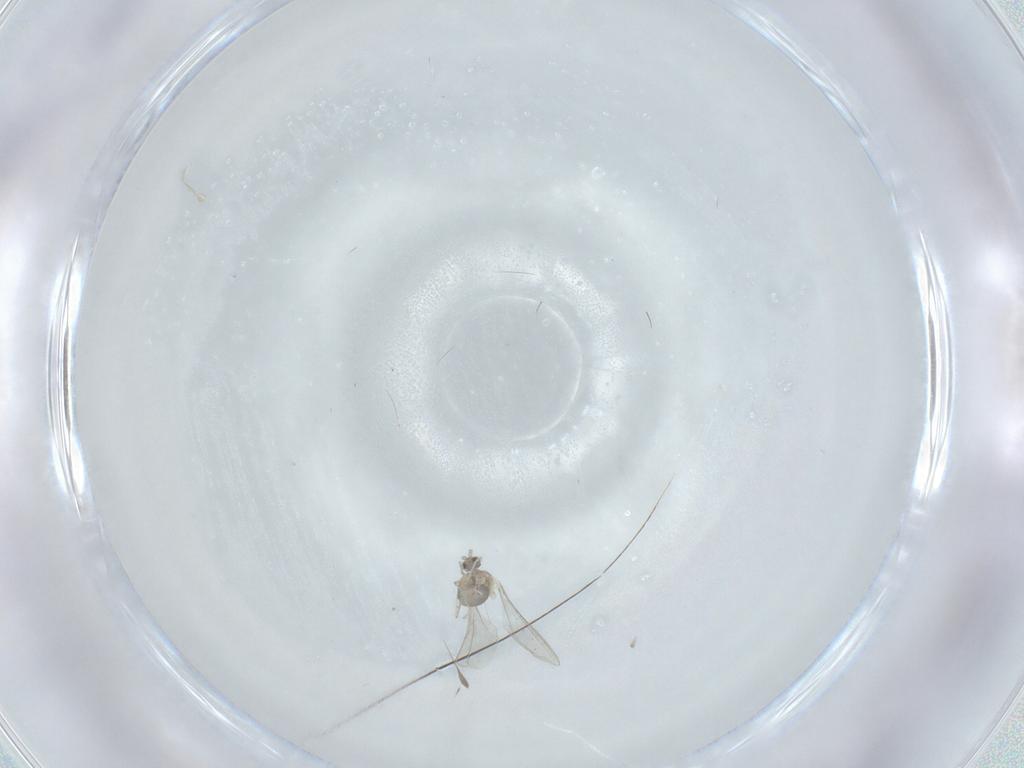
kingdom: Animalia
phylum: Arthropoda
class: Insecta
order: Diptera
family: Cecidomyiidae
